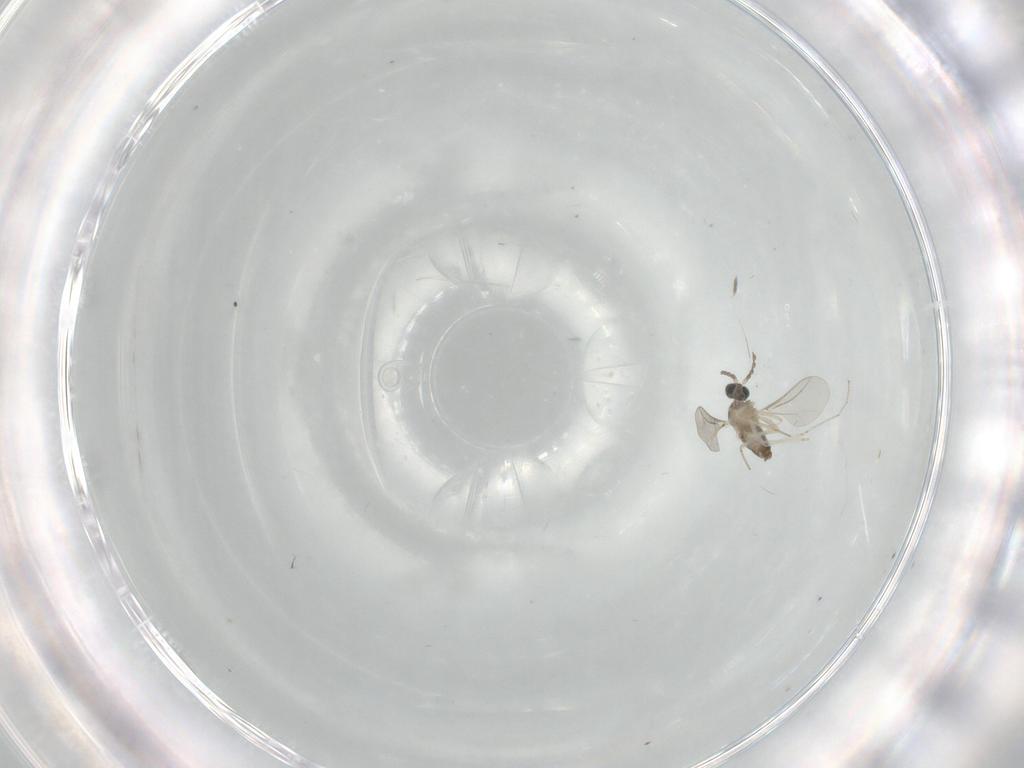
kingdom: Animalia
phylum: Arthropoda
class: Insecta
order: Diptera
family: Cecidomyiidae
